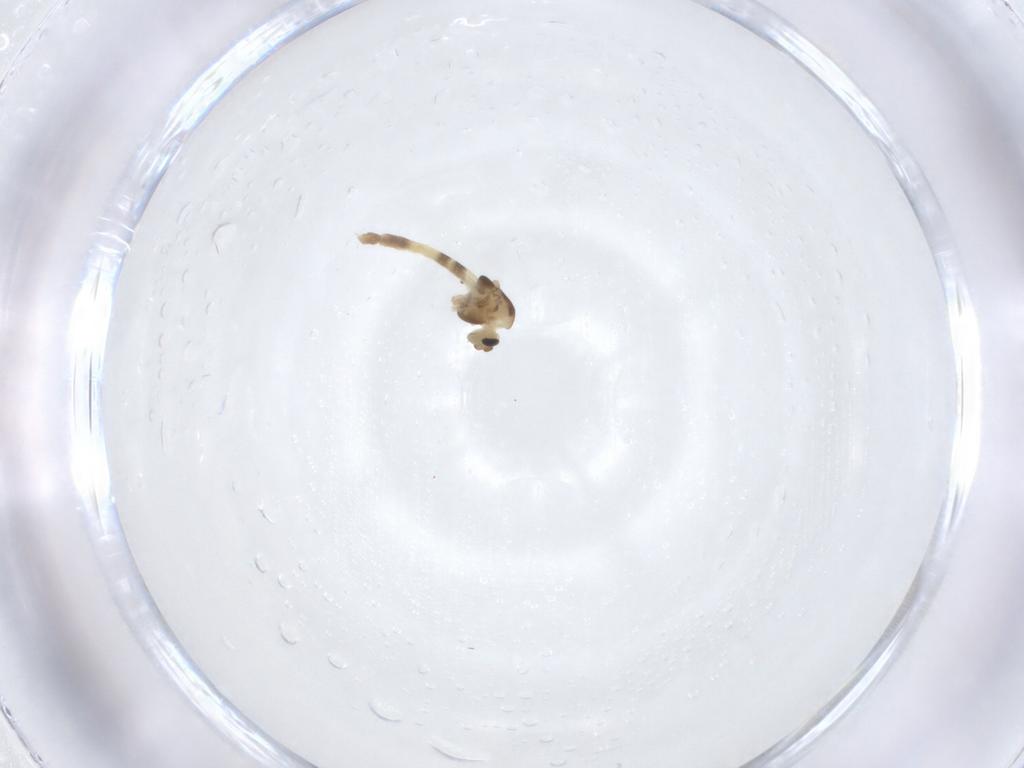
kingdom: Animalia
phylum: Arthropoda
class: Insecta
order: Diptera
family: Chironomidae
